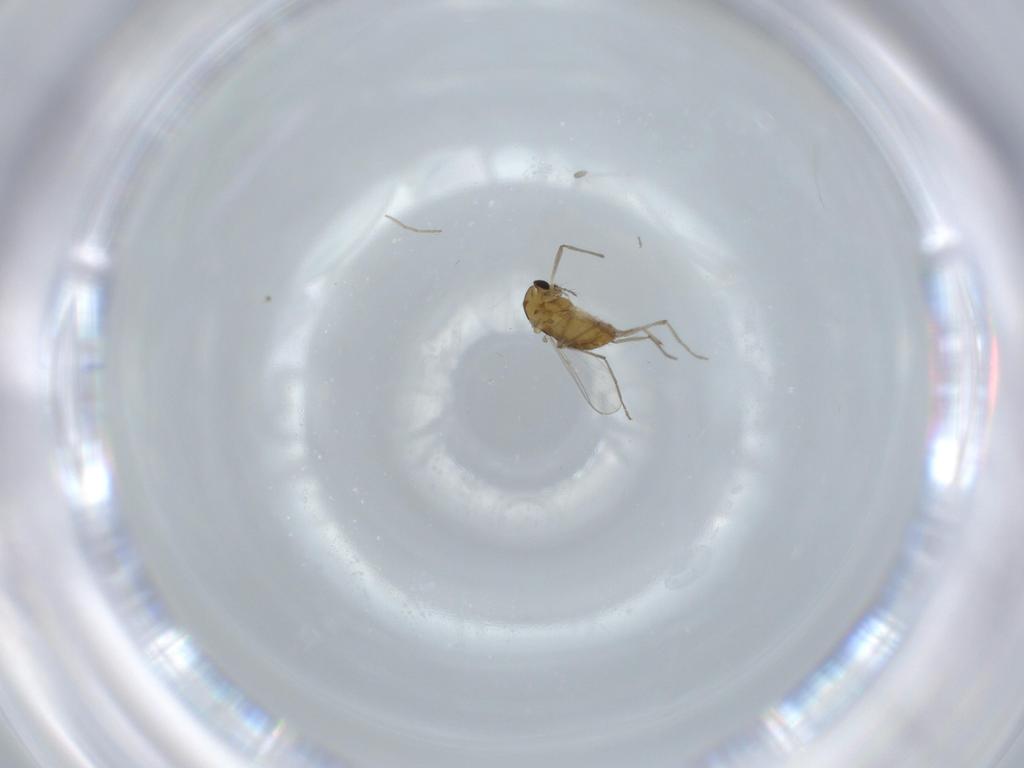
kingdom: Animalia
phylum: Arthropoda
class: Insecta
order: Diptera
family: Chironomidae
